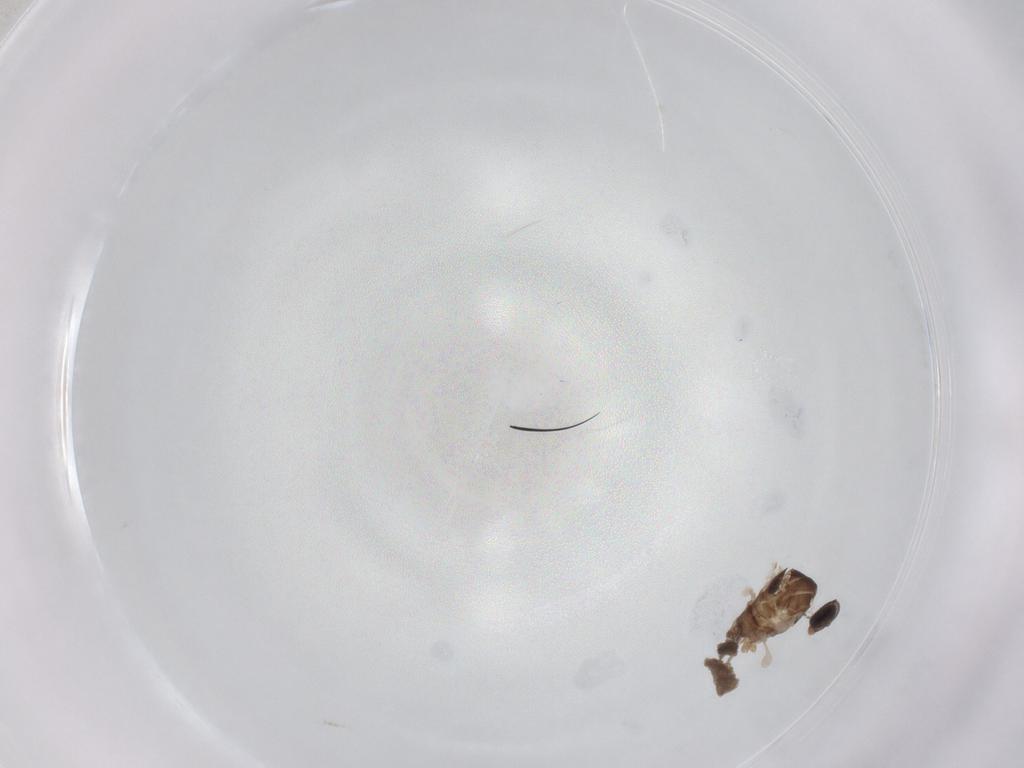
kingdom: Animalia
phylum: Arthropoda
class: Insecta
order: Diptera
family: Cecidomyiidae
